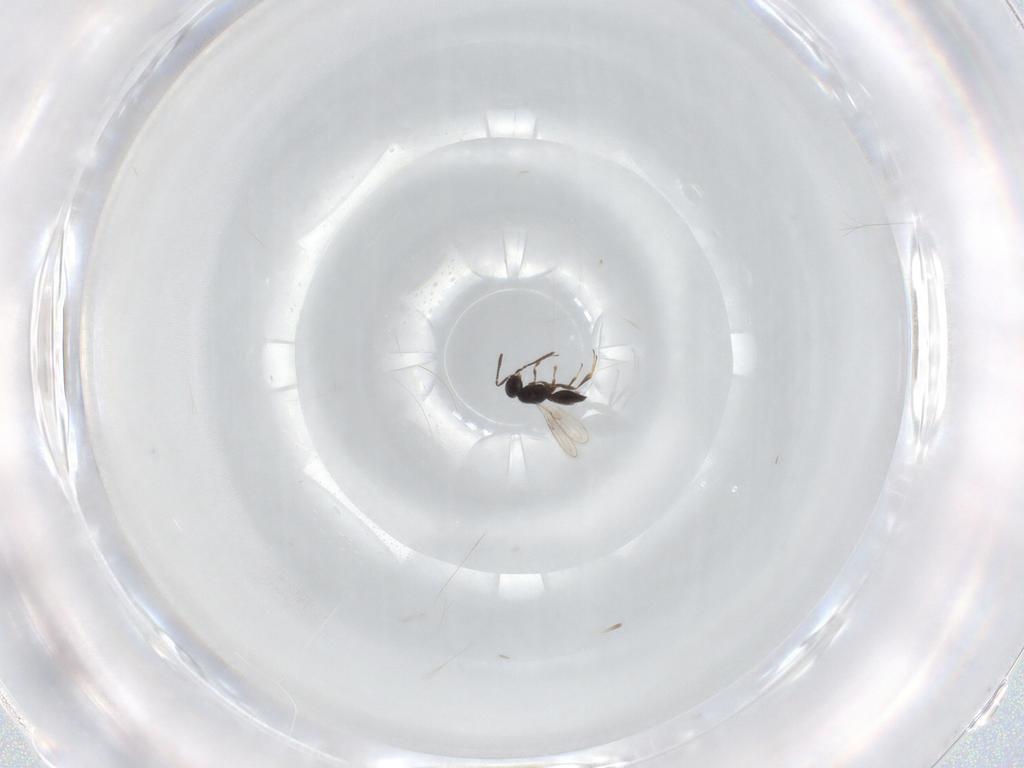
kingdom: Animalia
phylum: Arthropoda
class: Insecta
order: Hymenoptera
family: Scelionidae
